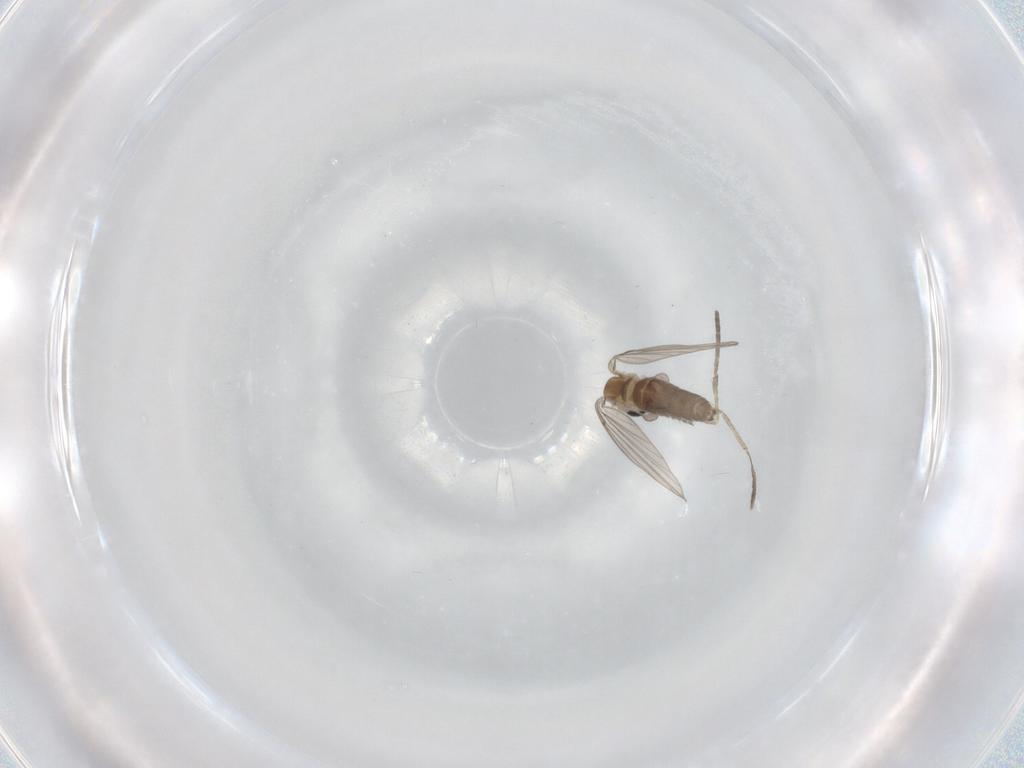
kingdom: Animalia
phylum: Arthropoda
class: Insecta
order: Diptera
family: Psychodidae
